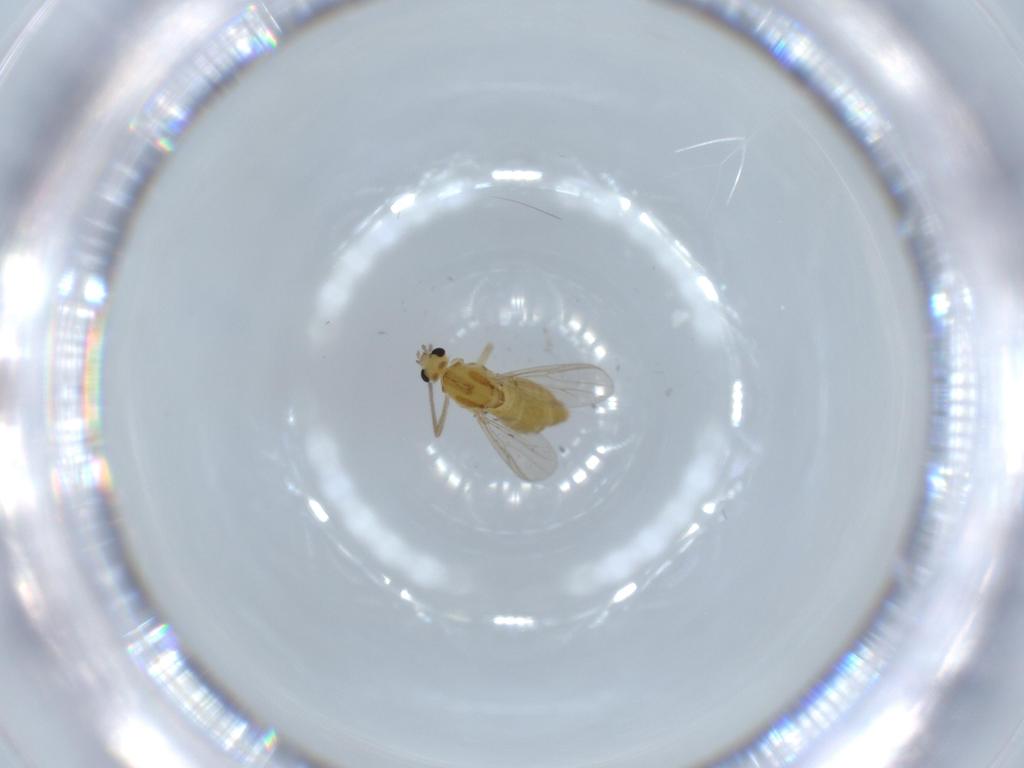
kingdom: Animalia
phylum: Arthropoda
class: Insecta
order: Diptera
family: Chironomidae
